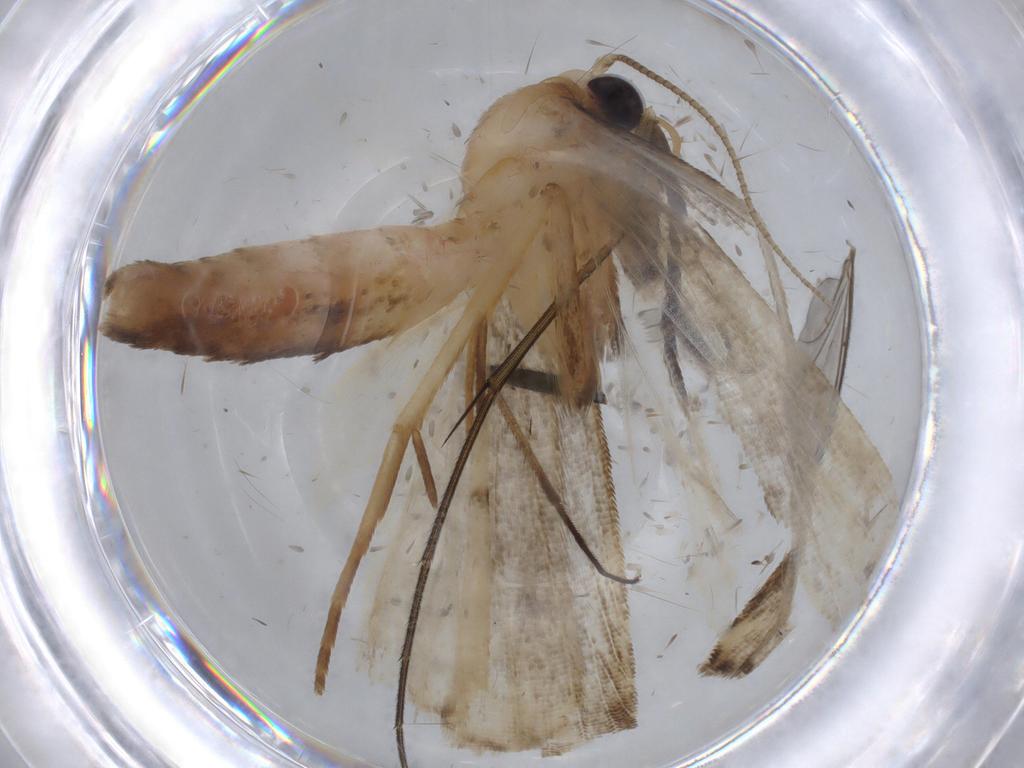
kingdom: Animalia
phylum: Arthropoda
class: Insecta
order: Lepidoptera
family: Noctuidae
